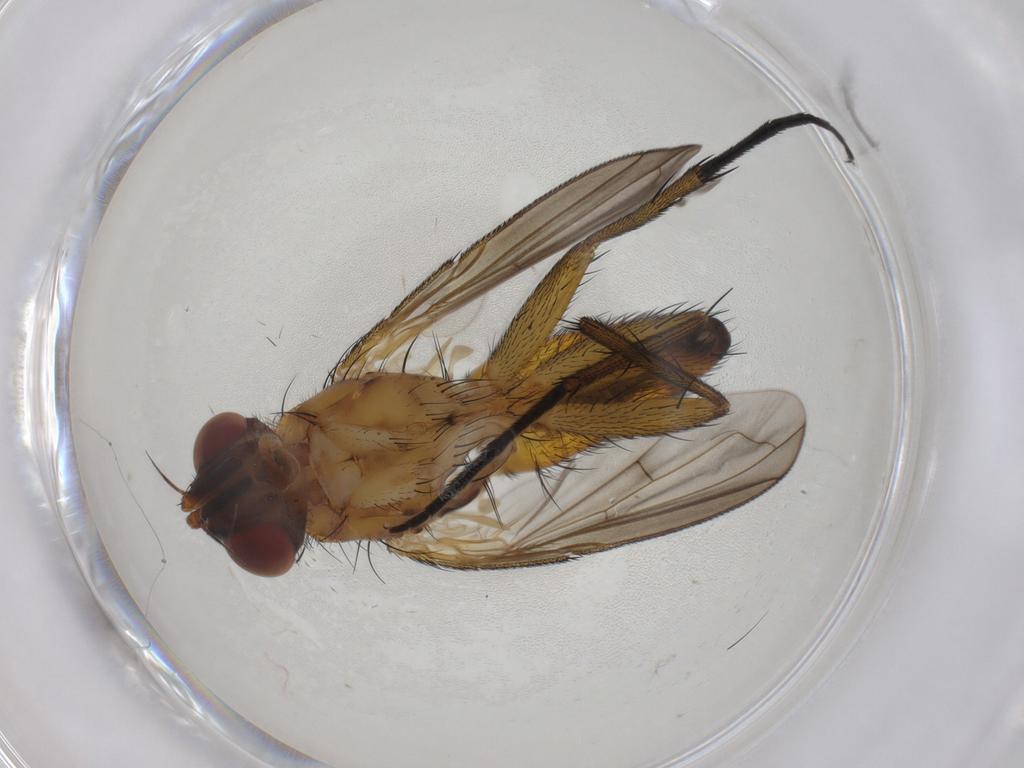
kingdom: Animalia
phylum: Arthropoda
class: Insecta
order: Diptera
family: Tachinidae
